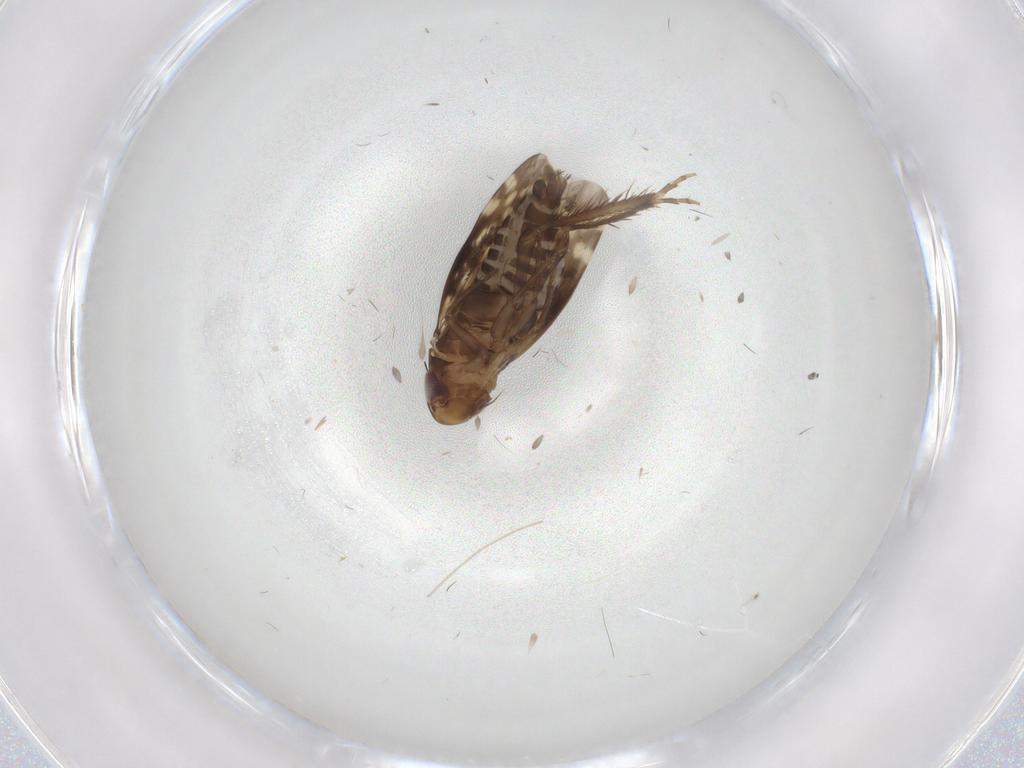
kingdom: Animalia
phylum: Arthropoda
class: Insecta
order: Hemiptera
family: Cicadellidae
